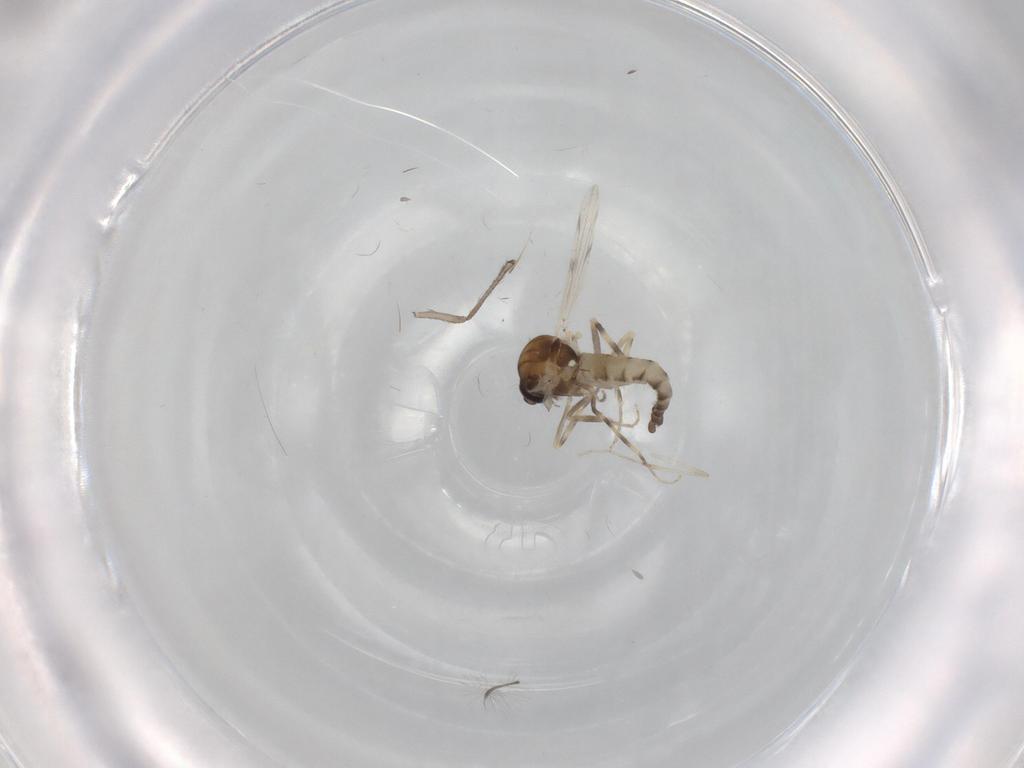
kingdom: Animalia
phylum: Arthropoda
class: Insecta
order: Diptera
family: Ceratopogonidae
